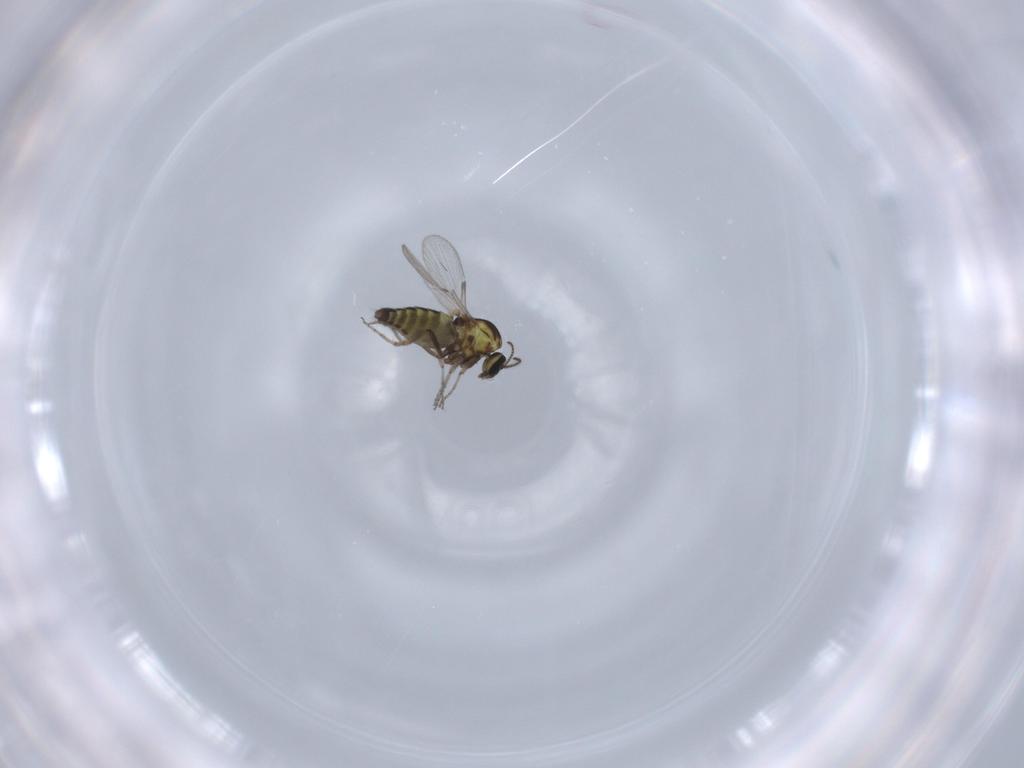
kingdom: Animalia
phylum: Arthropoda
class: Insecta
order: Diptera
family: Ceratopogonidae
